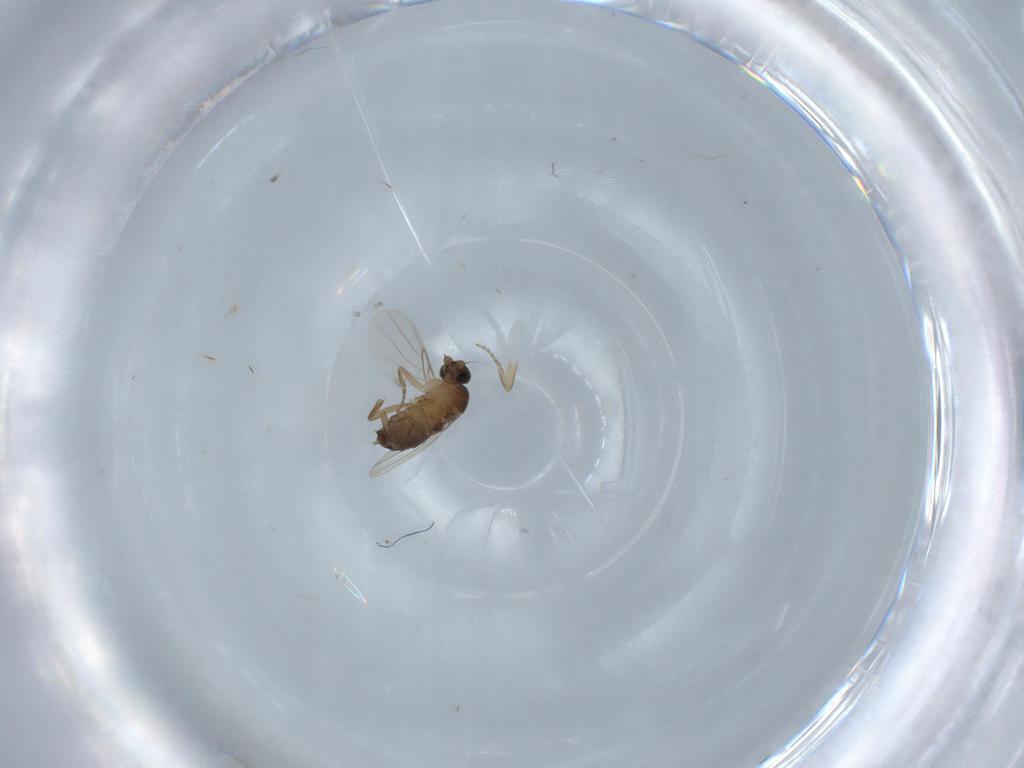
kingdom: Animalia
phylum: Arthropoda
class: Insecta
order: Diptera
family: Phoridae
